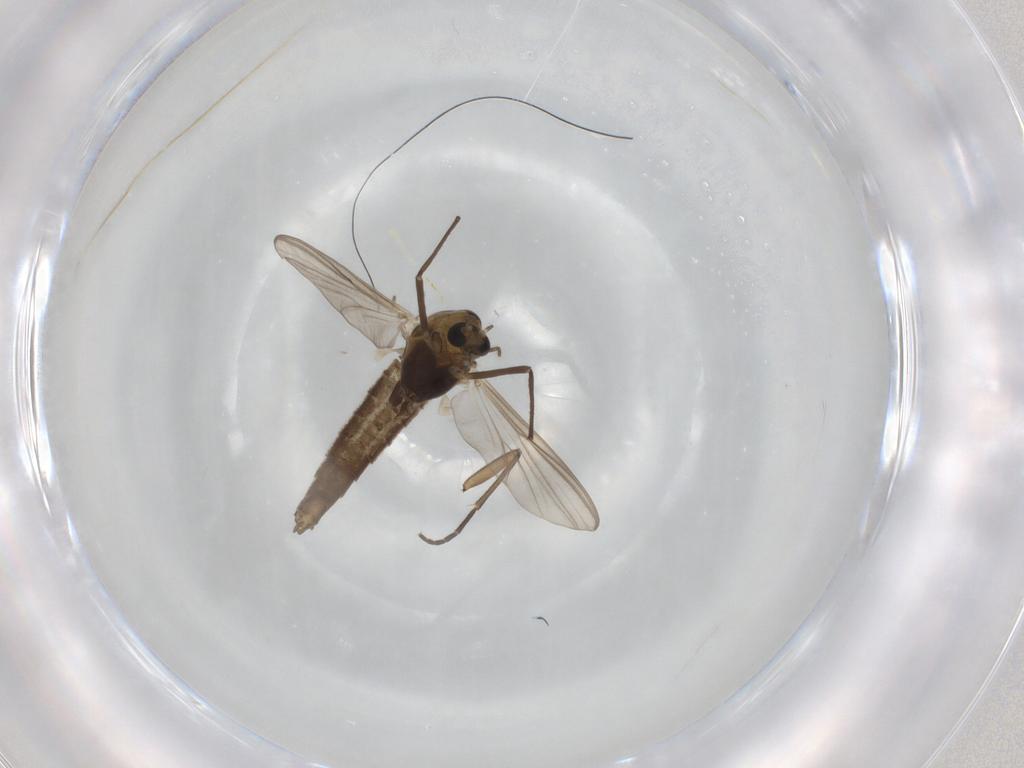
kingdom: Animalia
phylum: Arthropoda
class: Insecta
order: Diptera
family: Chironomidae
